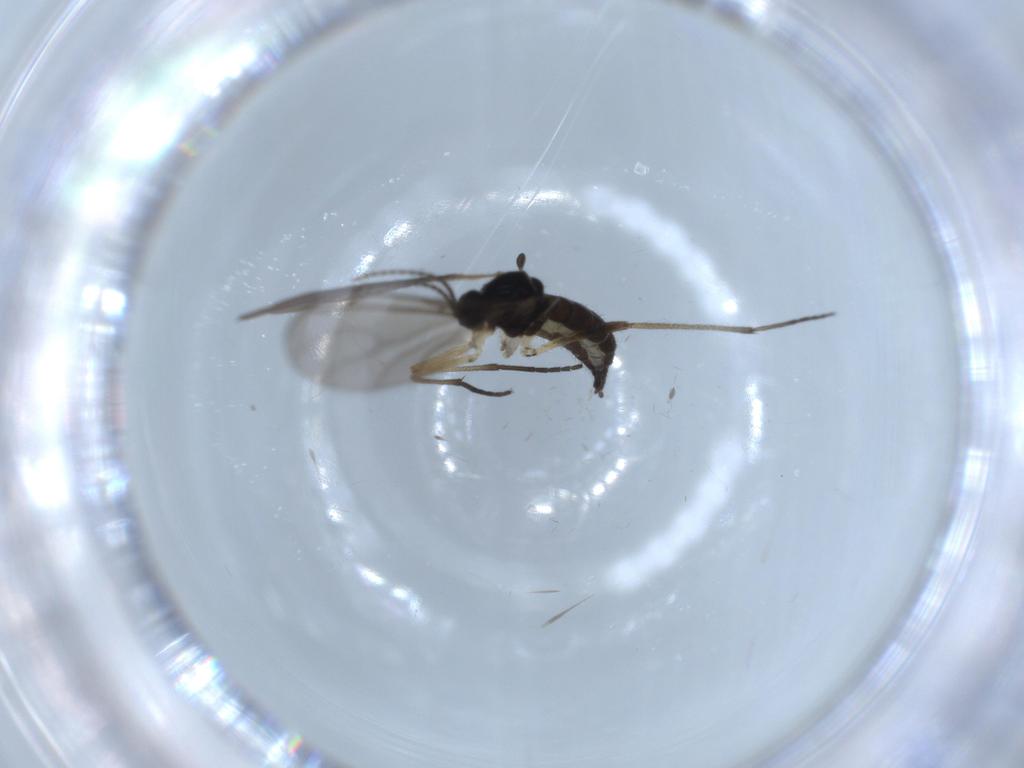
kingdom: Animalia
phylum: Arthropoda
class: Insecta
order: Diptera
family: Sciaridae
